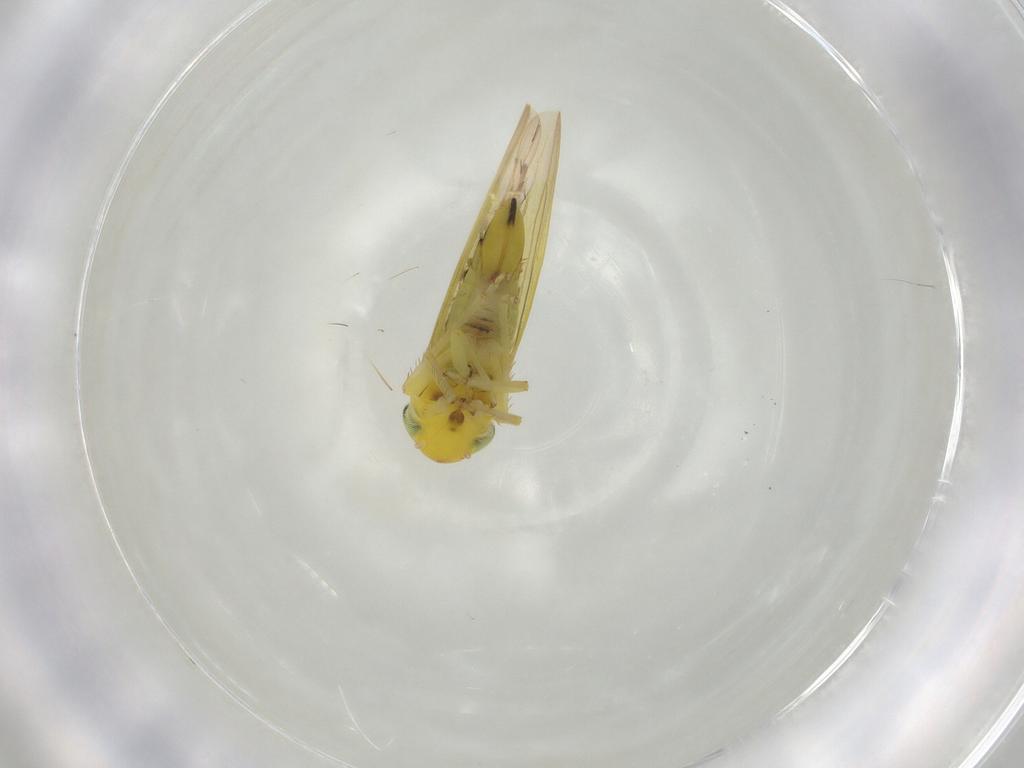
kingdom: Animalia
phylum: Arthropoda
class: Insecta
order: Hemiptera
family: Cicadellidae
